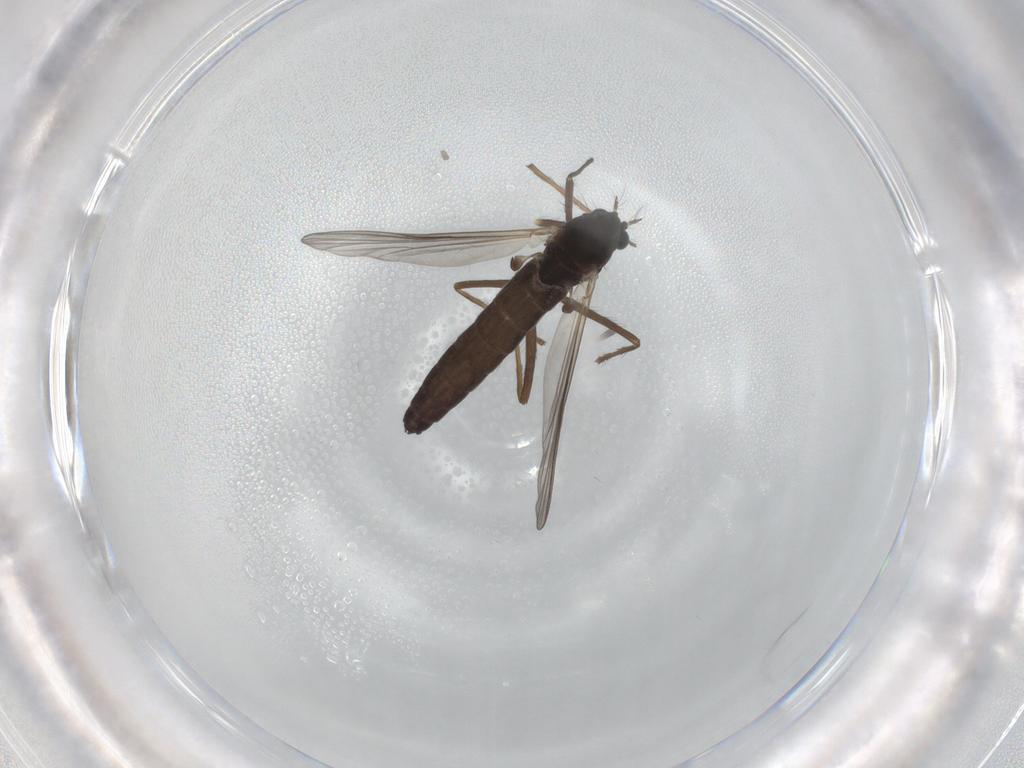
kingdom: Animalia
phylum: Arthropoda
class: Insecta
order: Diptera
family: Chironomidae
